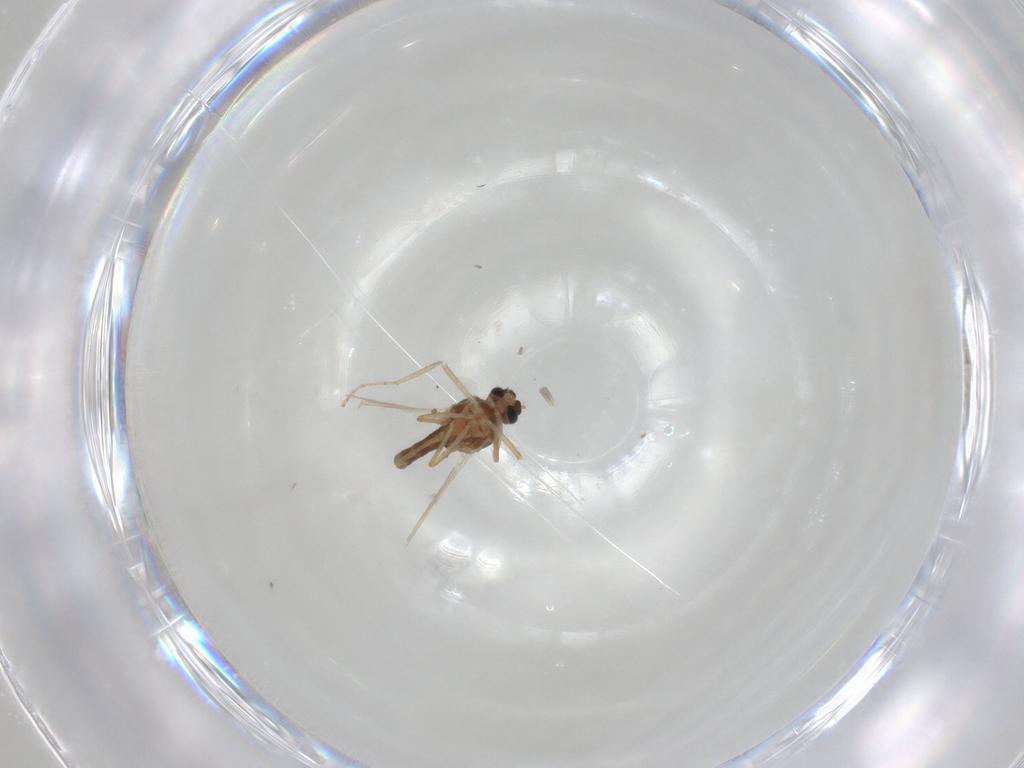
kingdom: Animalia
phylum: Arthropoda
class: Insecta
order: Diptera
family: Ceratopogonidae
